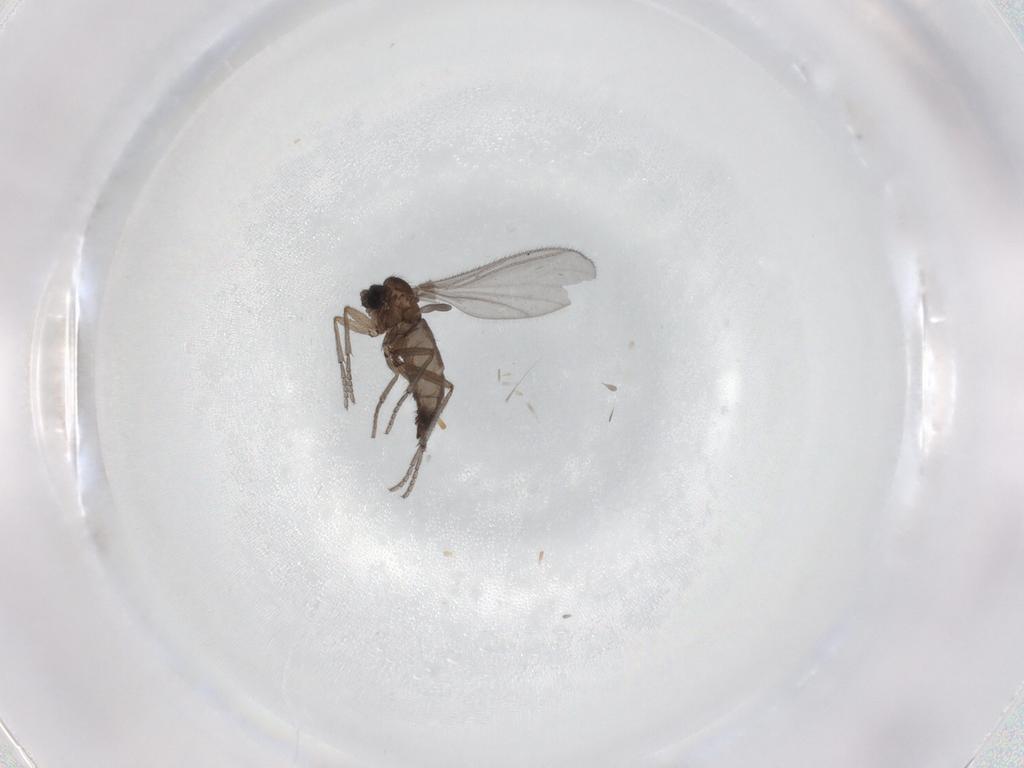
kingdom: Animalia
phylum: Arthropoda
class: Insecta
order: Diptera
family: Sciaridae
